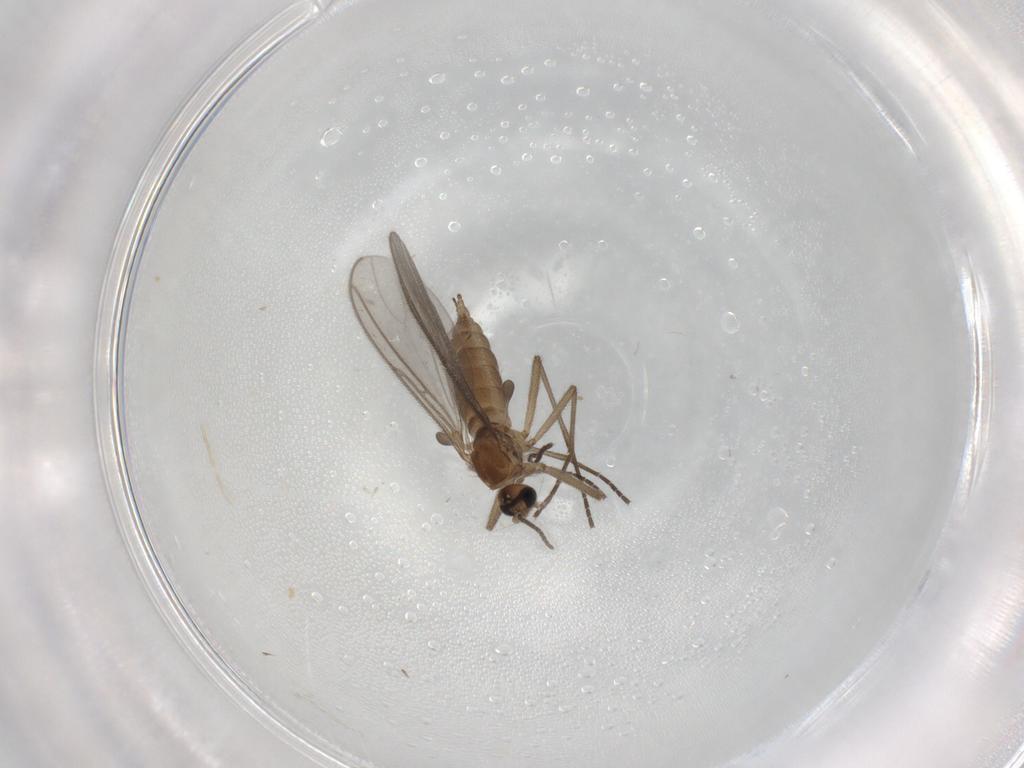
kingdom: Animalia
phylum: Arthropoda
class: Insecta
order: Diptera
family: Sciaridae
